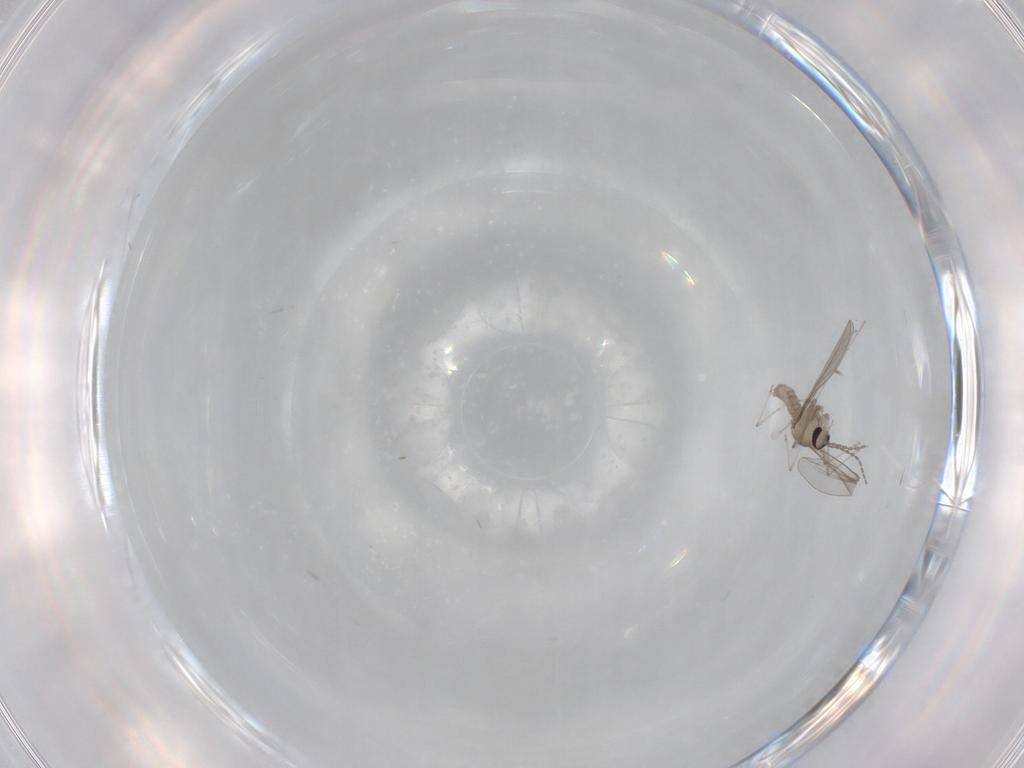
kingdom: Animalia
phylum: Arthropoda
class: Insecta
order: Diptera
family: Cecidomyiidae
